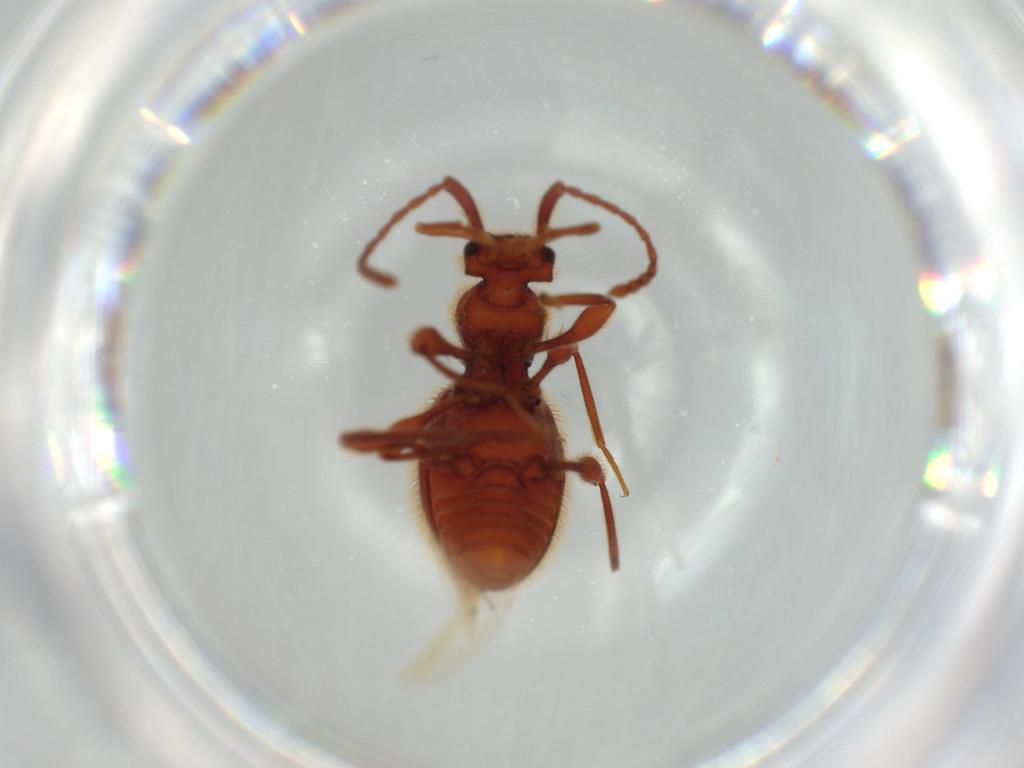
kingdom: Animalia
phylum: Arthropoda
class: Insecta
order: Coleoptera
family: Staphylinidae
